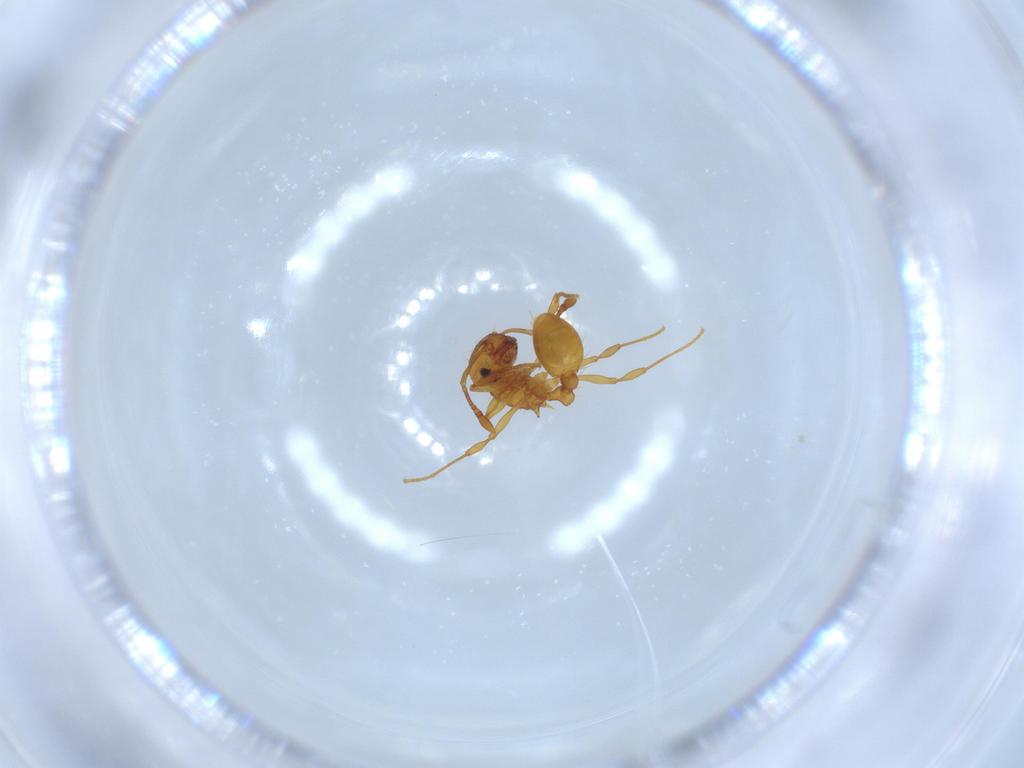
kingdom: Animalia
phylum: Arthropoda
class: Insecta
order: Hymenoptera
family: Formicidae
